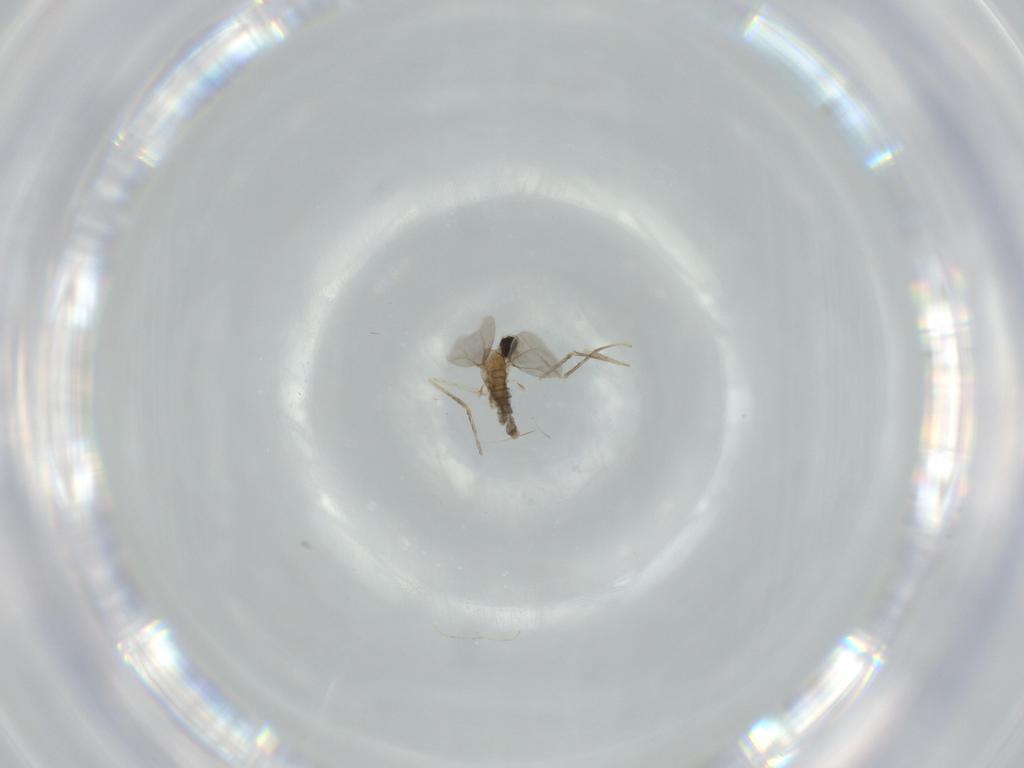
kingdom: Animalia
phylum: Arthropoda
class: Insecta
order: Diptera
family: Cecidomyiidae
